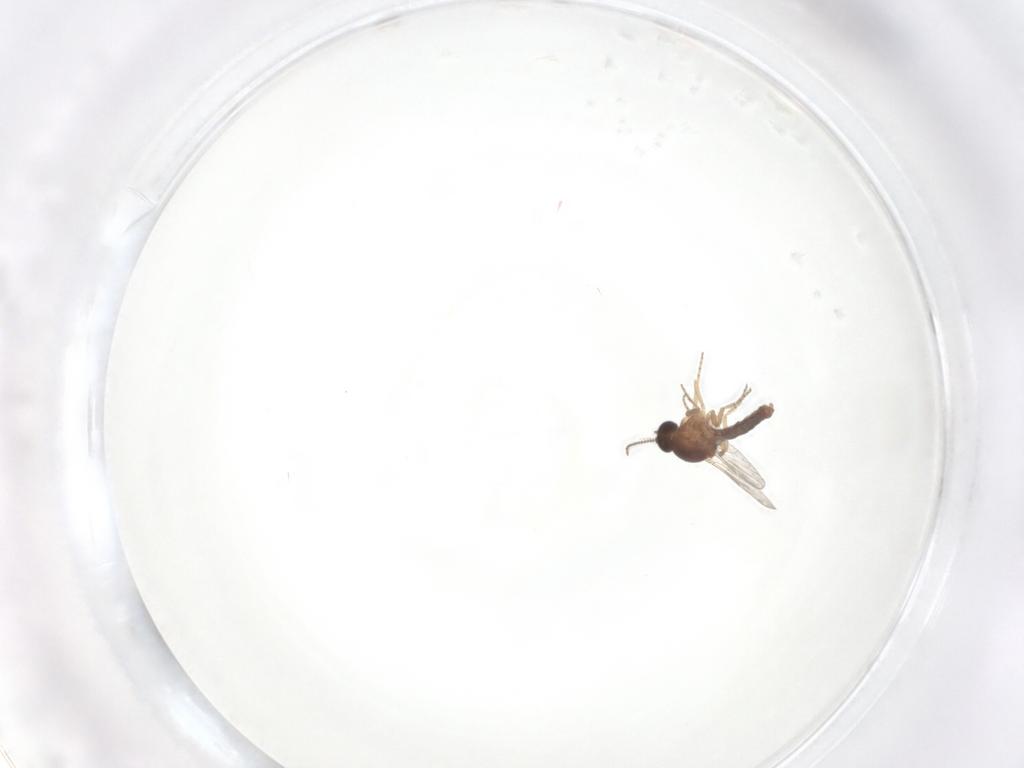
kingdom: Animalia
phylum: Arthropoda
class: Insecta
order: Diptera
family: Ceratopogonidae
